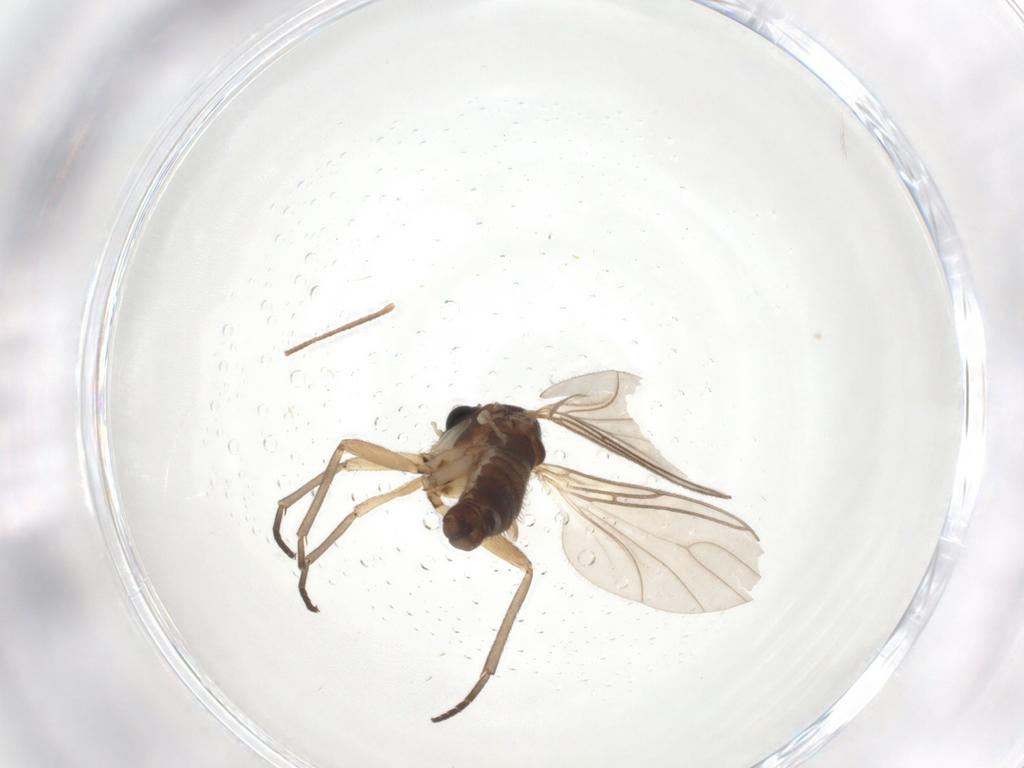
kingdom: Animalia
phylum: Arthropoda
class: Insecta
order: Diptera
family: Sciaridae
